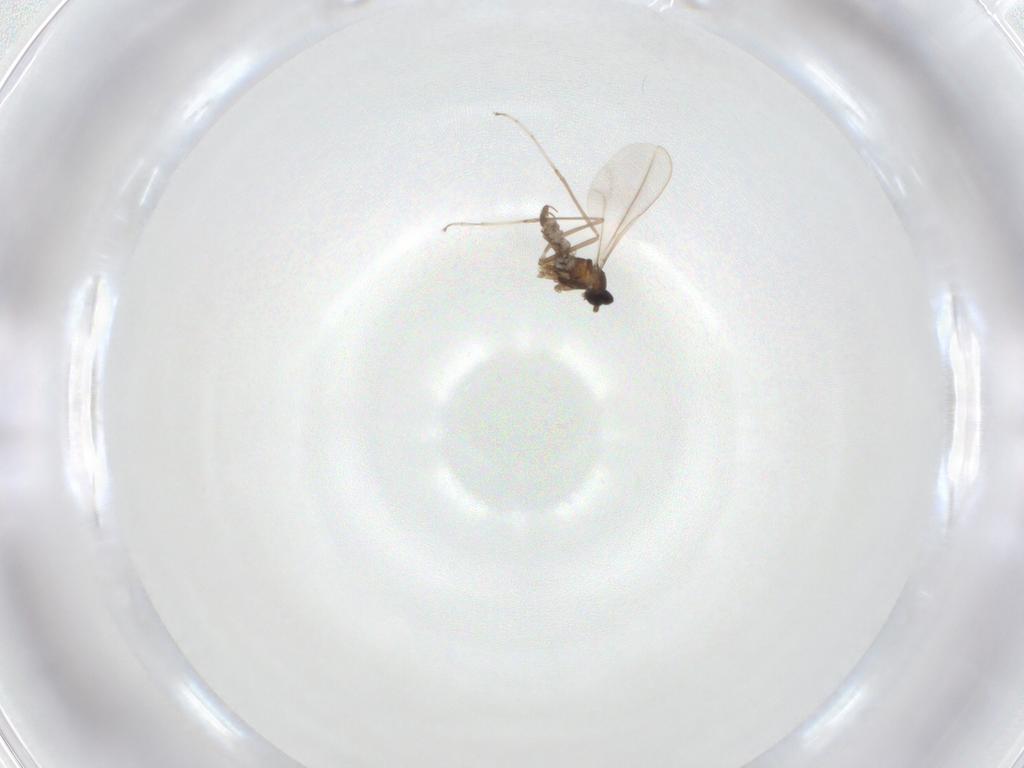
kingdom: Animalia
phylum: Arthropoda
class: Insecta
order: Diptera
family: Cecidomyiidae
